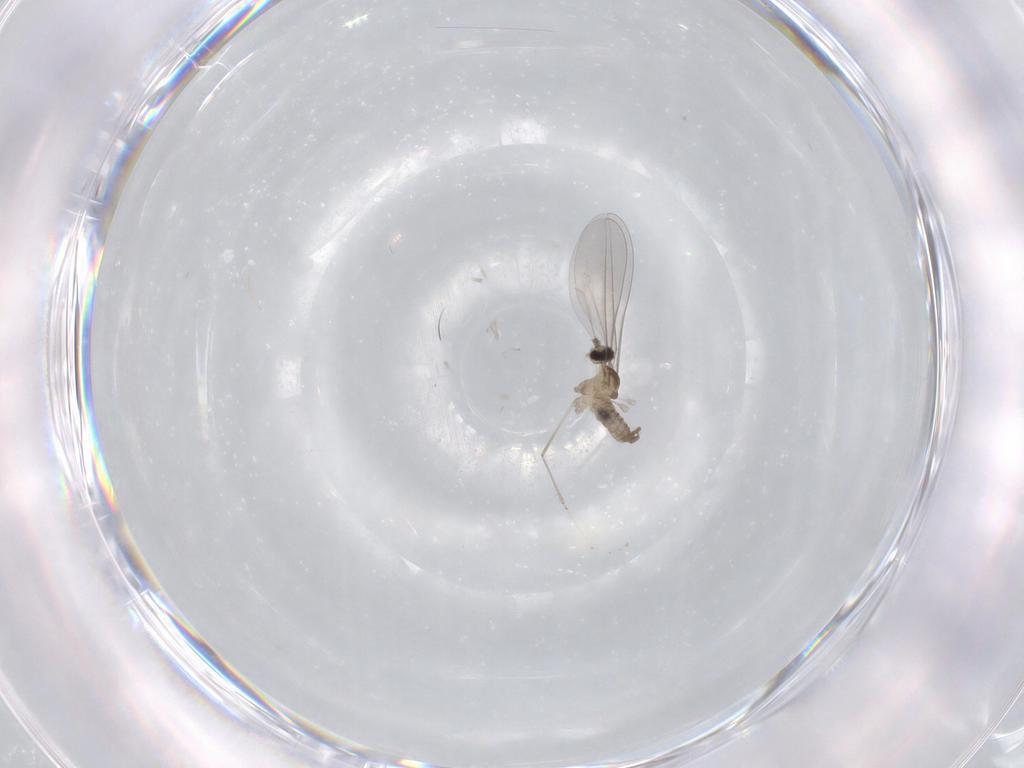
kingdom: Animalia
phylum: Arthropoda
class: Insecta
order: Diptera
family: Cecidomyiidae
